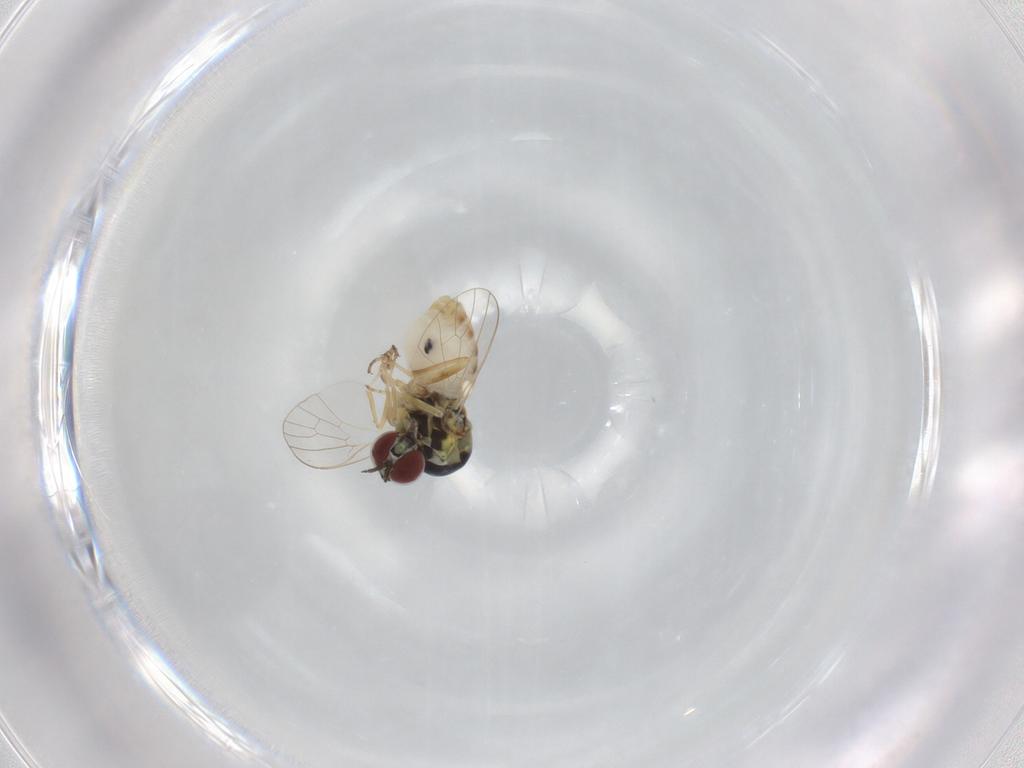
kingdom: Animalia
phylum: Arthropoda
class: Insecta
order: Diptera
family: Bombyliidae
